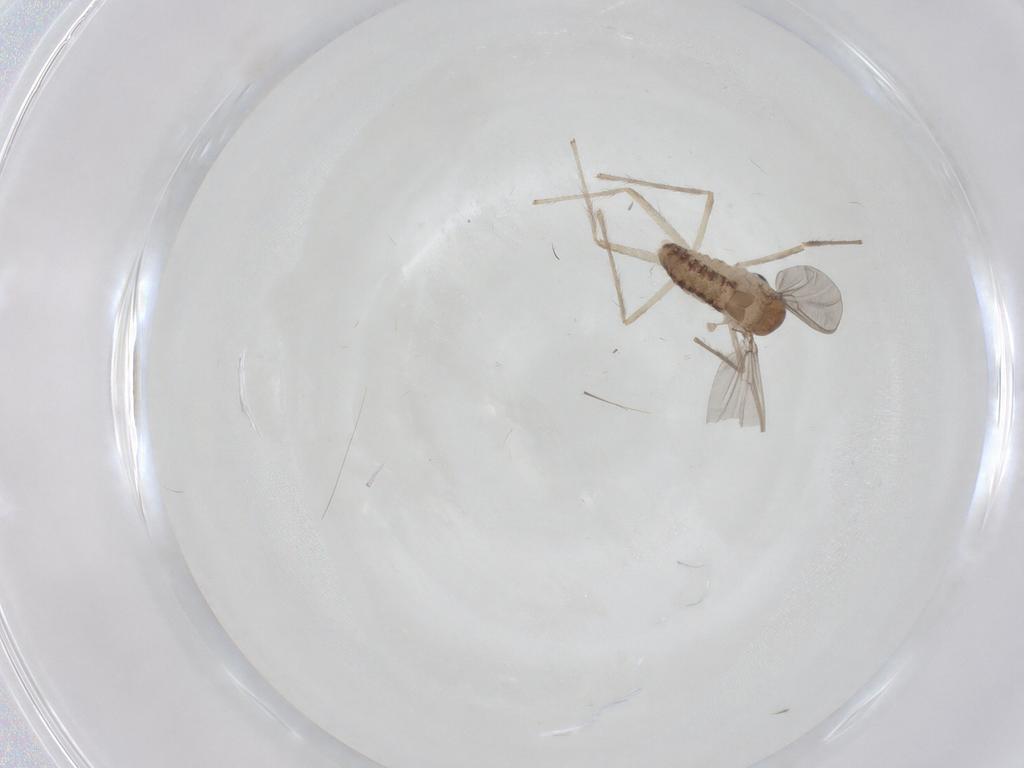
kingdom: Animalia
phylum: Arthropoda
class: Insecta
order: Diptera
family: Chironomidae
